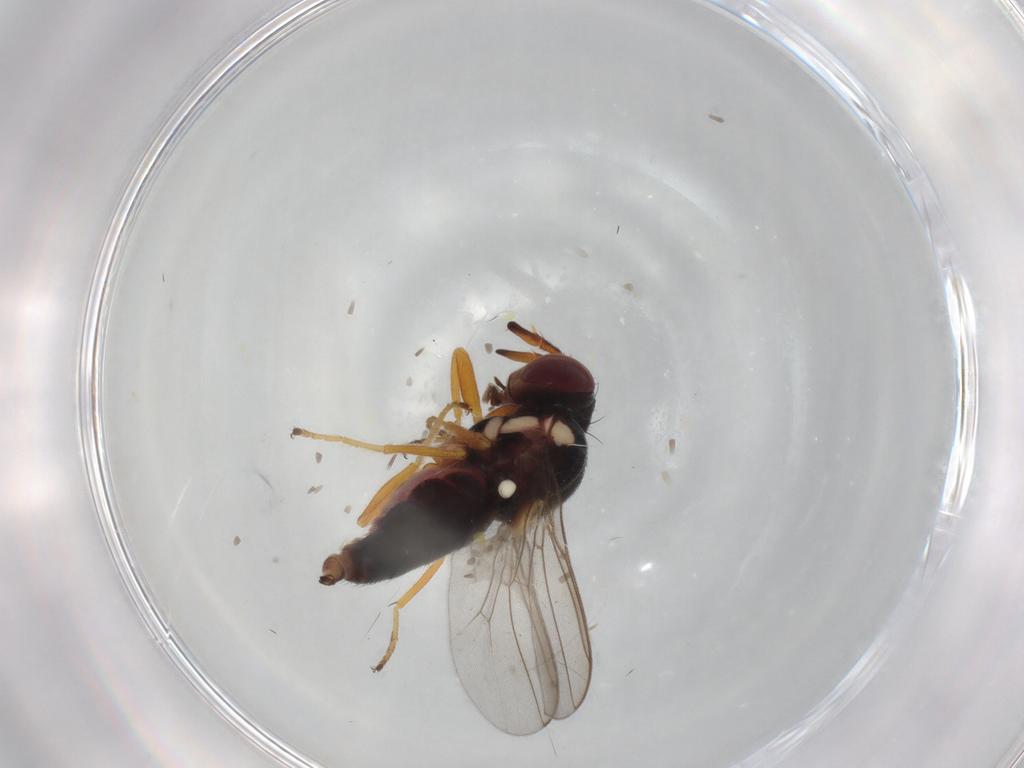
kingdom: Animalia
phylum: Arthropoda
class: Insecta
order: Diptera
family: Chloropidae
